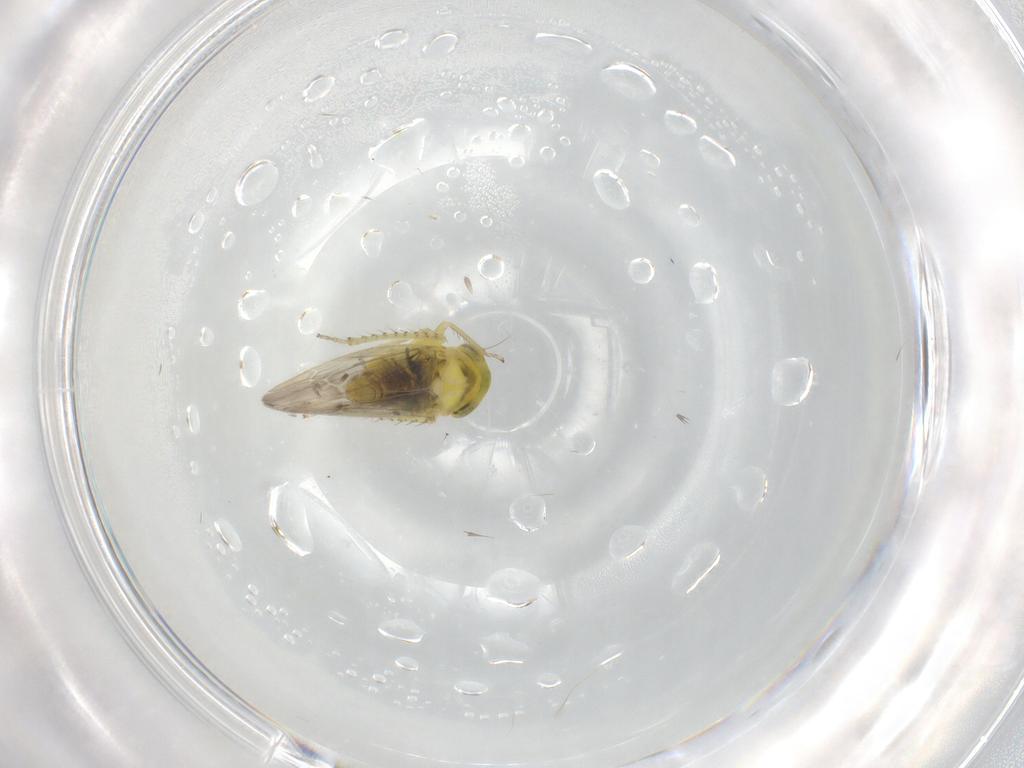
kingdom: Animalia
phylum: Arthropoda
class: Insecta
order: Hemiptera
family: Cicadellidae
